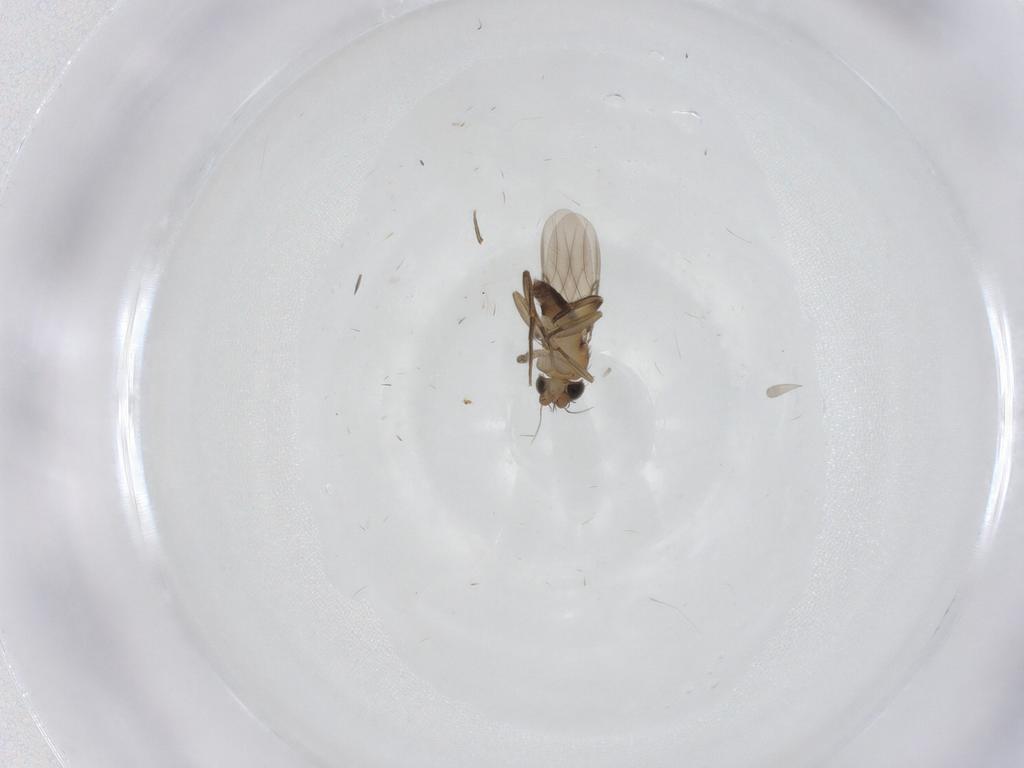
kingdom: Animalia
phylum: Arthropoda
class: Insecta
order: Diptera
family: Phoridae
